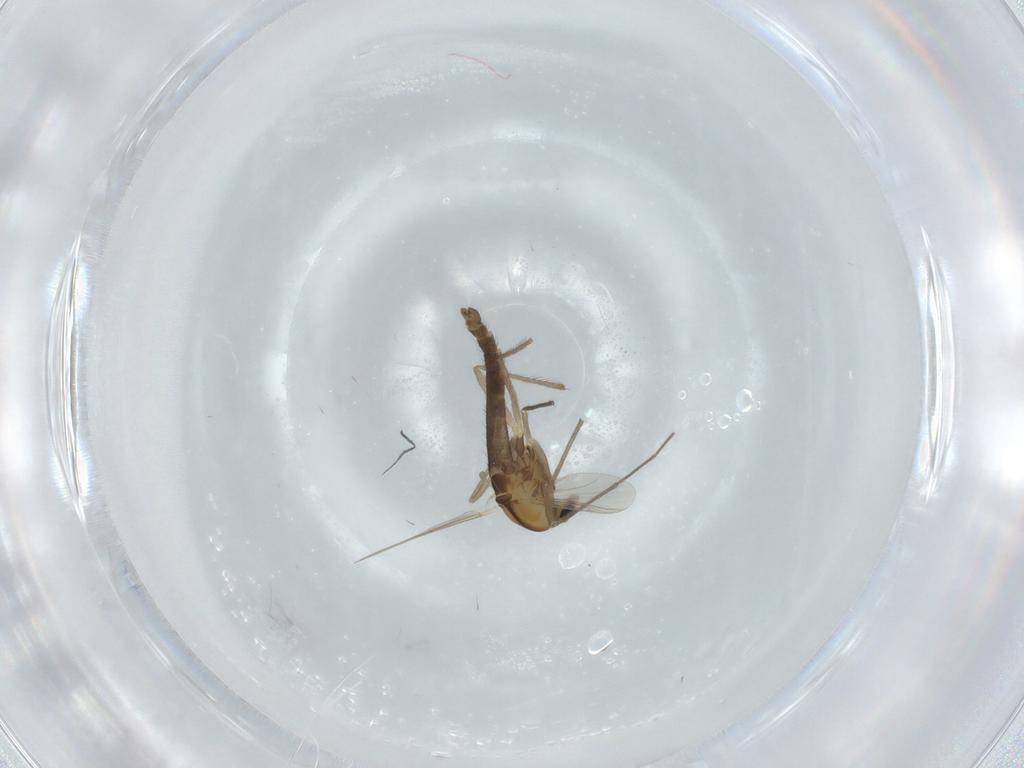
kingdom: Animalia
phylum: Arthropoda
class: Insecta
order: Diptera
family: Chironomidae
